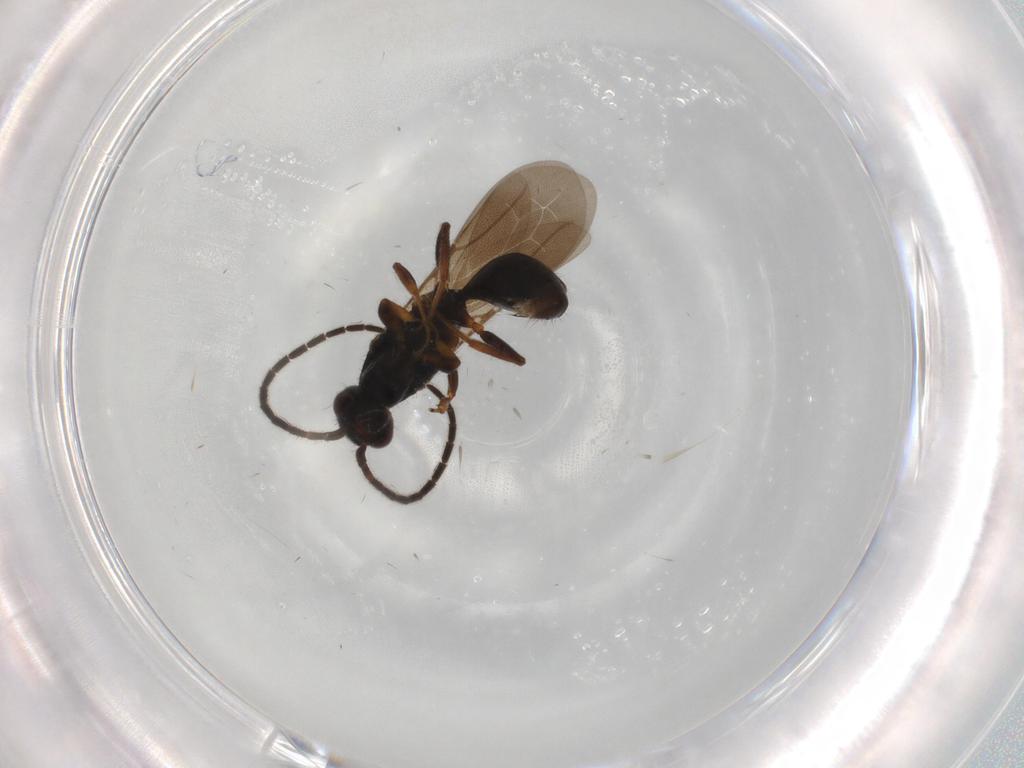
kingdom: Animalia
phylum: Arthropoda
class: Insecta
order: Hymenoptera
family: Bethylidae
